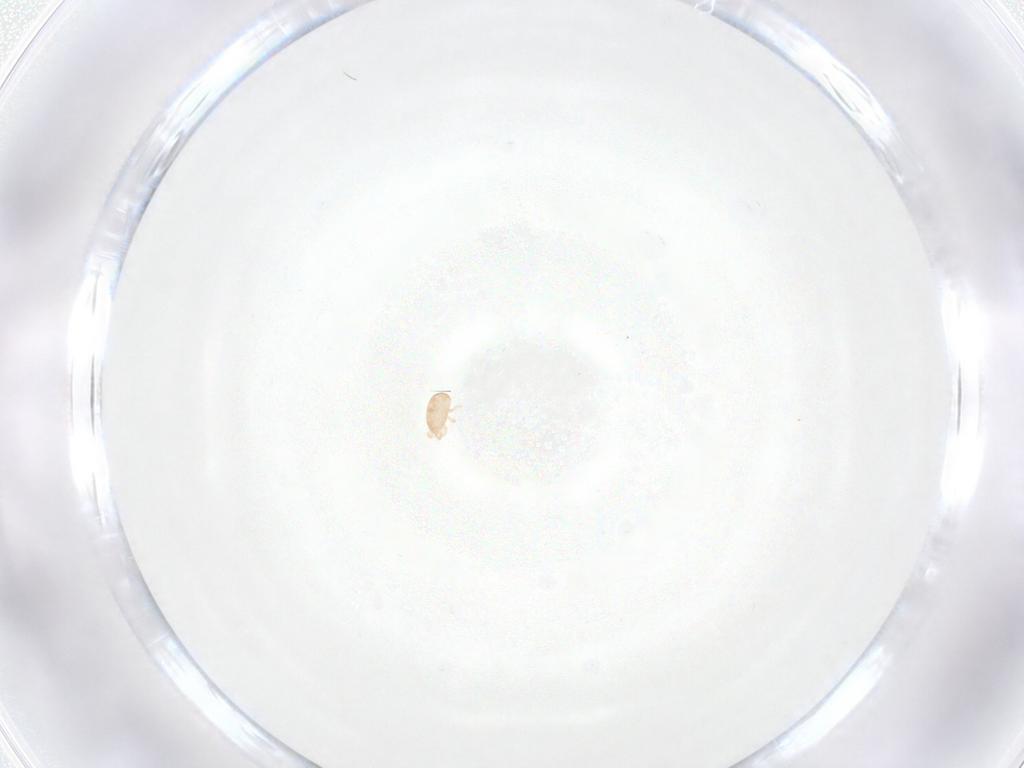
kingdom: Animalia
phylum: Arthropoda
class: Arachnida
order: Mesostigmata
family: Ascidae
